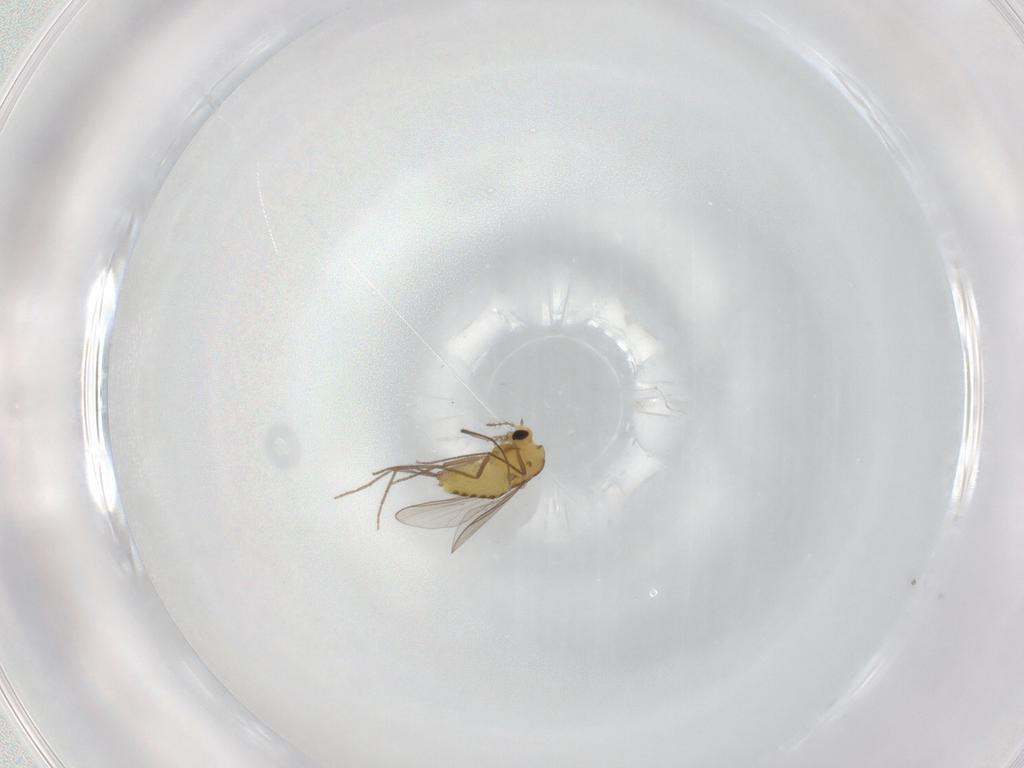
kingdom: Animalia
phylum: Arthropoda
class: Insecta
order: Diptera
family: Chironomidae
